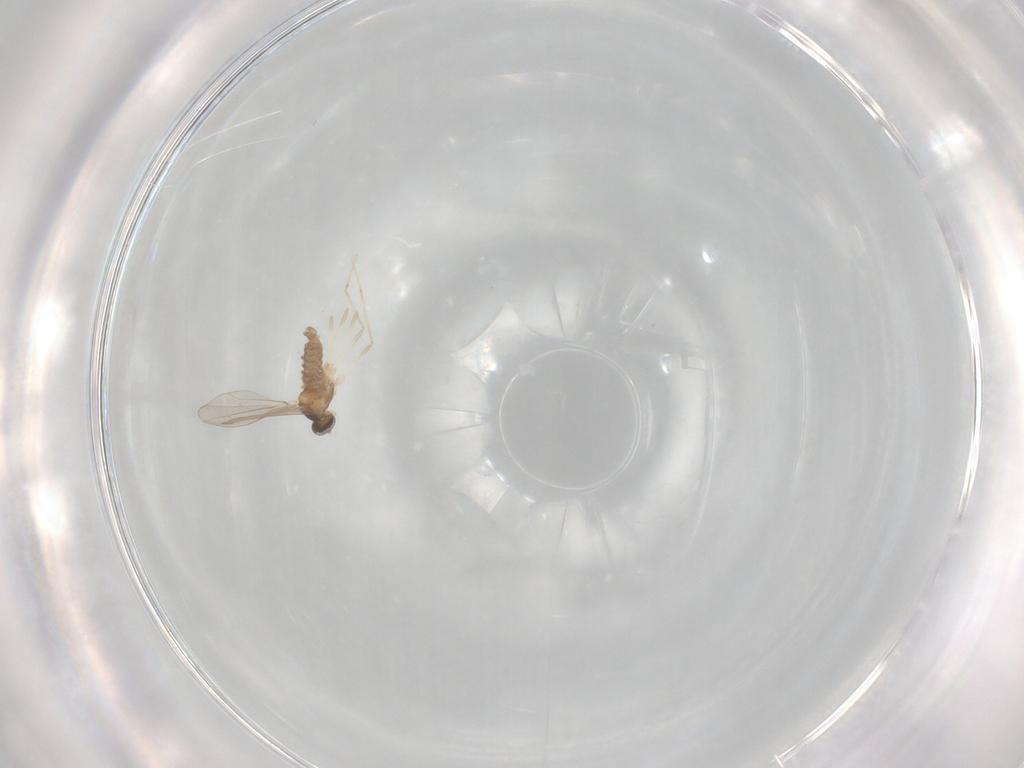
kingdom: Animalia
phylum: Arthropoda
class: Insecta
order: Diptera
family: Cecidomyiidae
